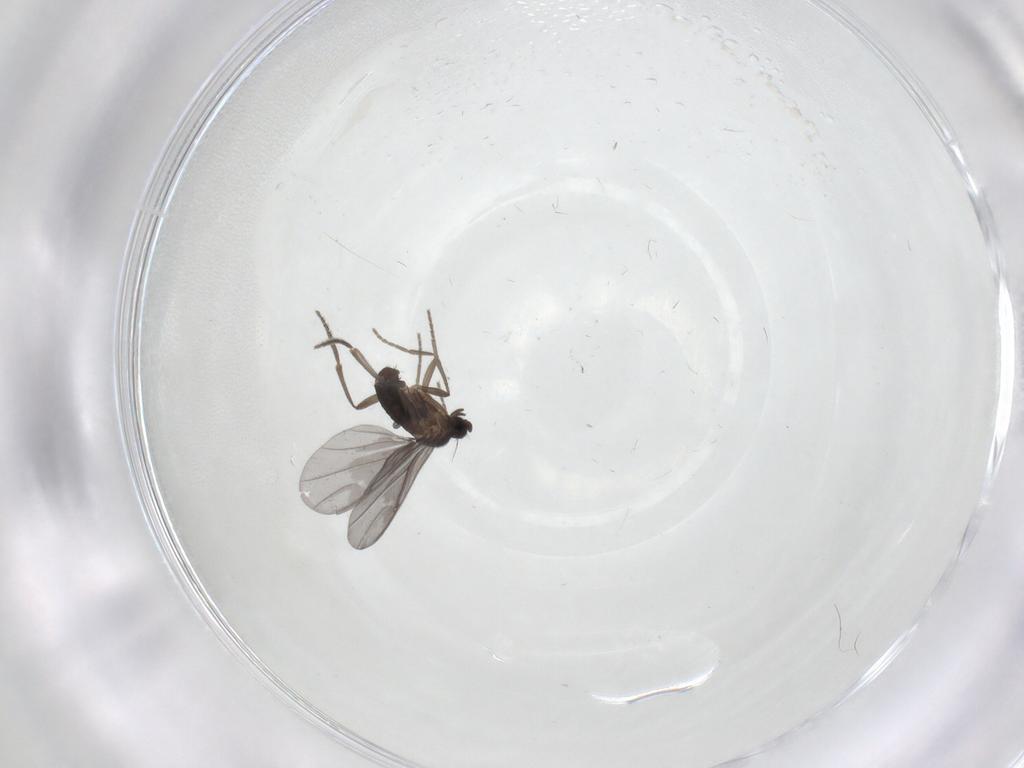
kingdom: Animalia
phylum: Arthropoda
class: Insecta
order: Diptera
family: Phoridae
